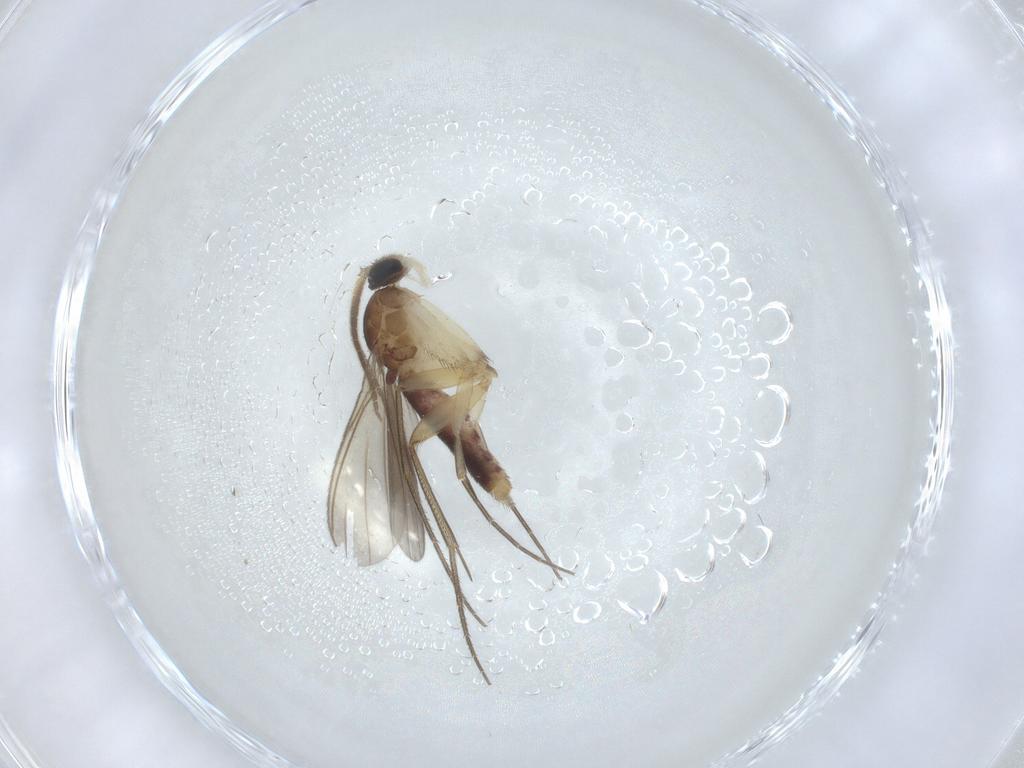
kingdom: Animalia
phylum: Arthropoda
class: Insecta
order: Diptera
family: Mycetophilidae
